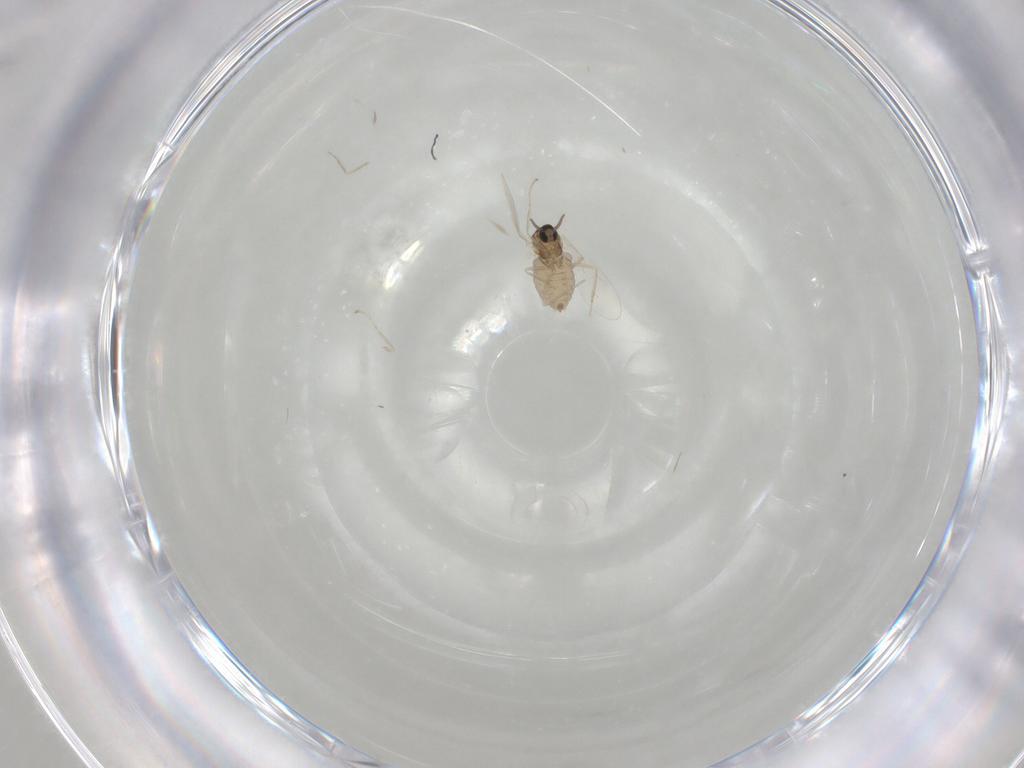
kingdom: Animalia
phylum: Arthropoda
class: Insecta
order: Diptera
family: Cecidomyiidae
